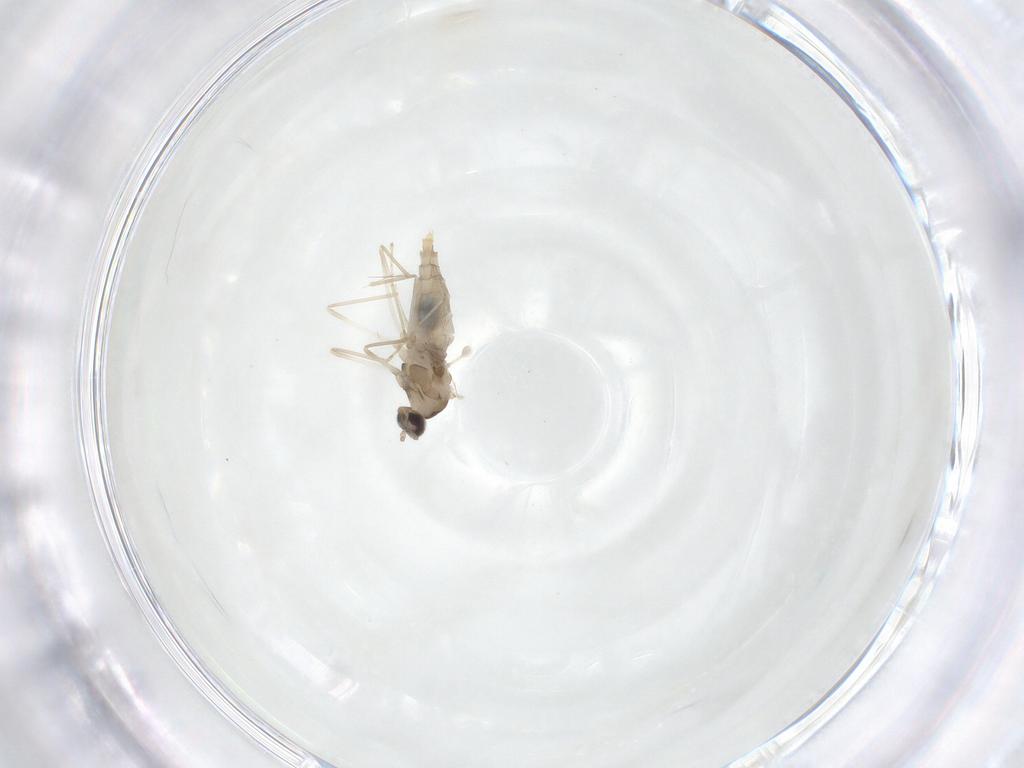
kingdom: Animalia
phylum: Arthropoda
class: Insecta
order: Diptera
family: Cecidomyiidae
